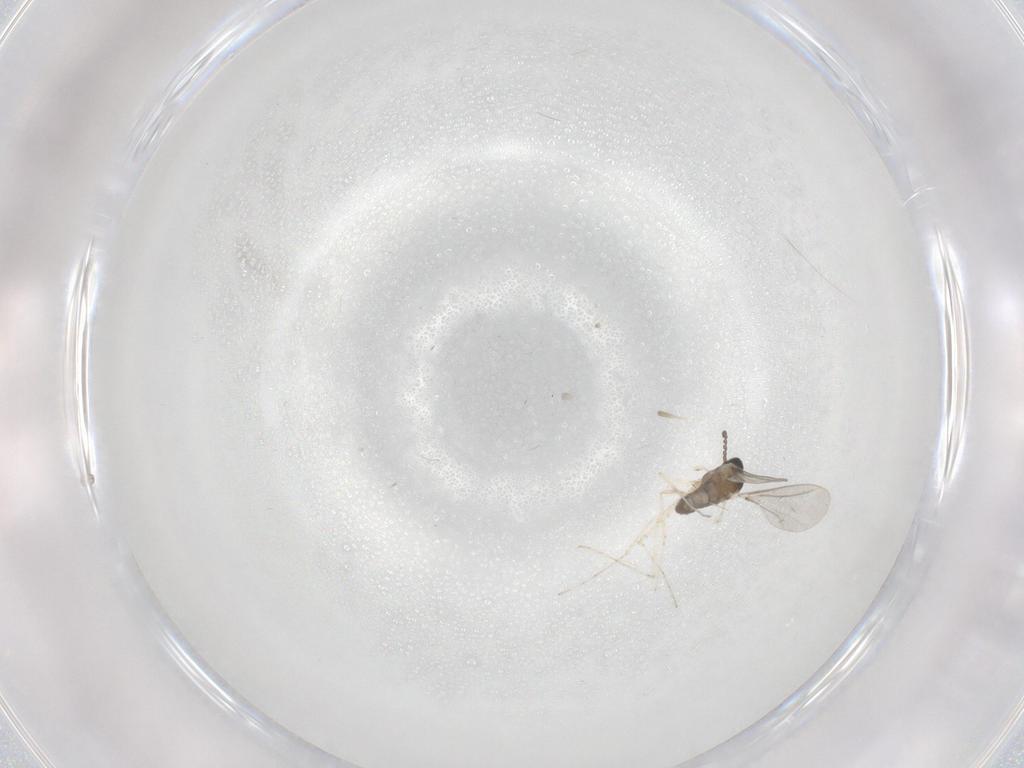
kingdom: Animalia
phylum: Arthropoda
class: Insecta
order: Diptera
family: Cecidomyiidae
